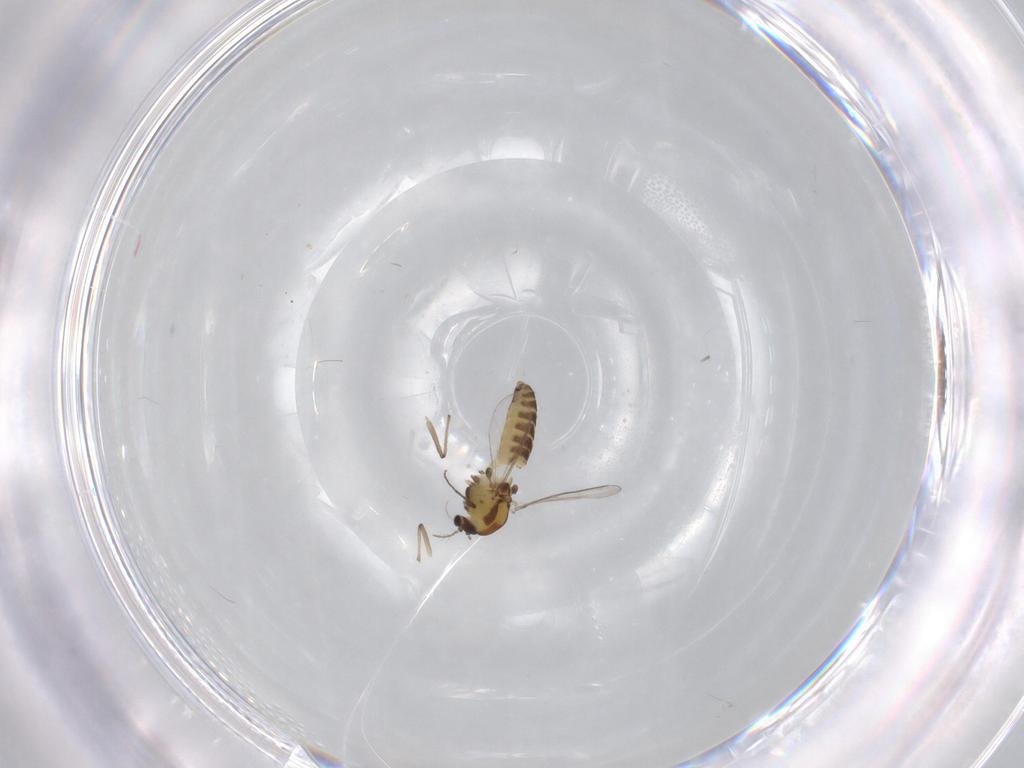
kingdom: Animalia
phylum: Arthropoda
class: Insecta
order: Diptera
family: Chironomidae
